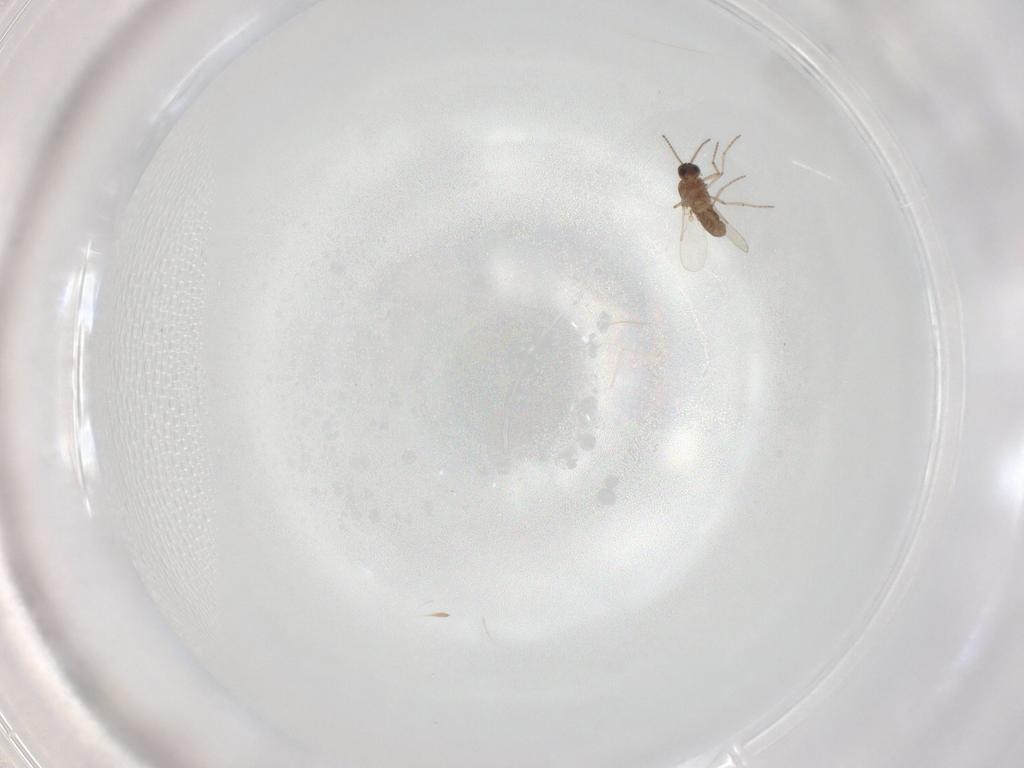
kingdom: Animalia
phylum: Arthropoda
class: Insecta
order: Diptera
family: Ceratopogonidae
